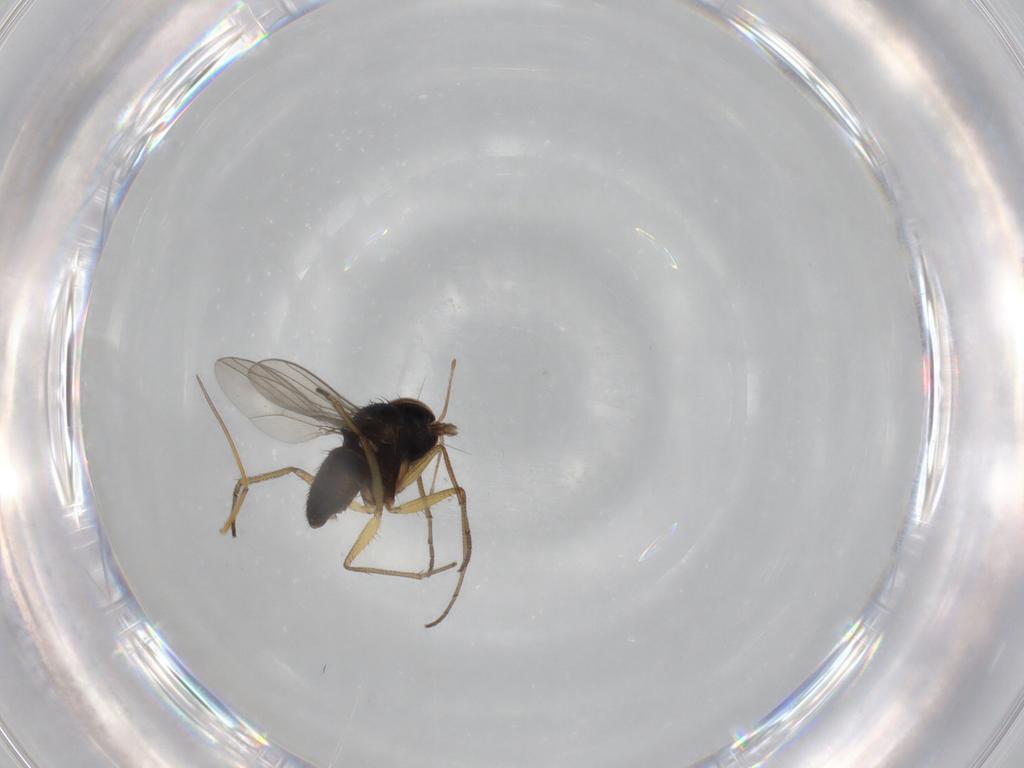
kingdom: Animalia
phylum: Arthropoda
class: Insecta
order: Diptera
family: Dolichopodidae
